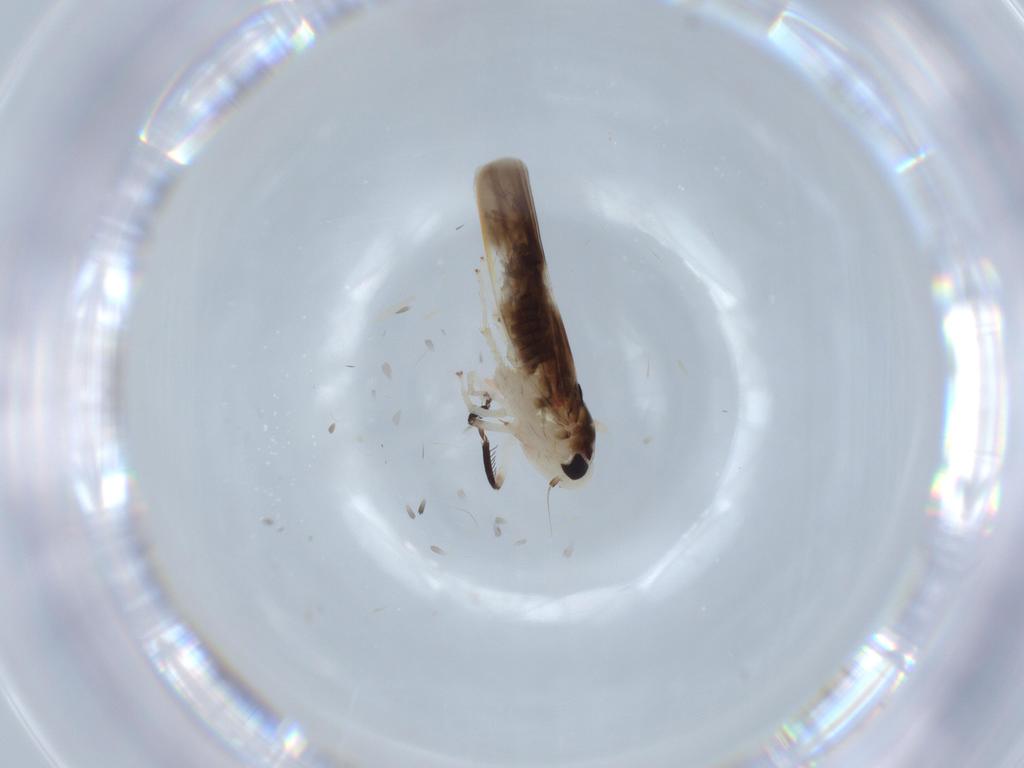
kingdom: Animalia
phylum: Arthropoda
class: Insecta
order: Hemiptera
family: Cicadellidae
